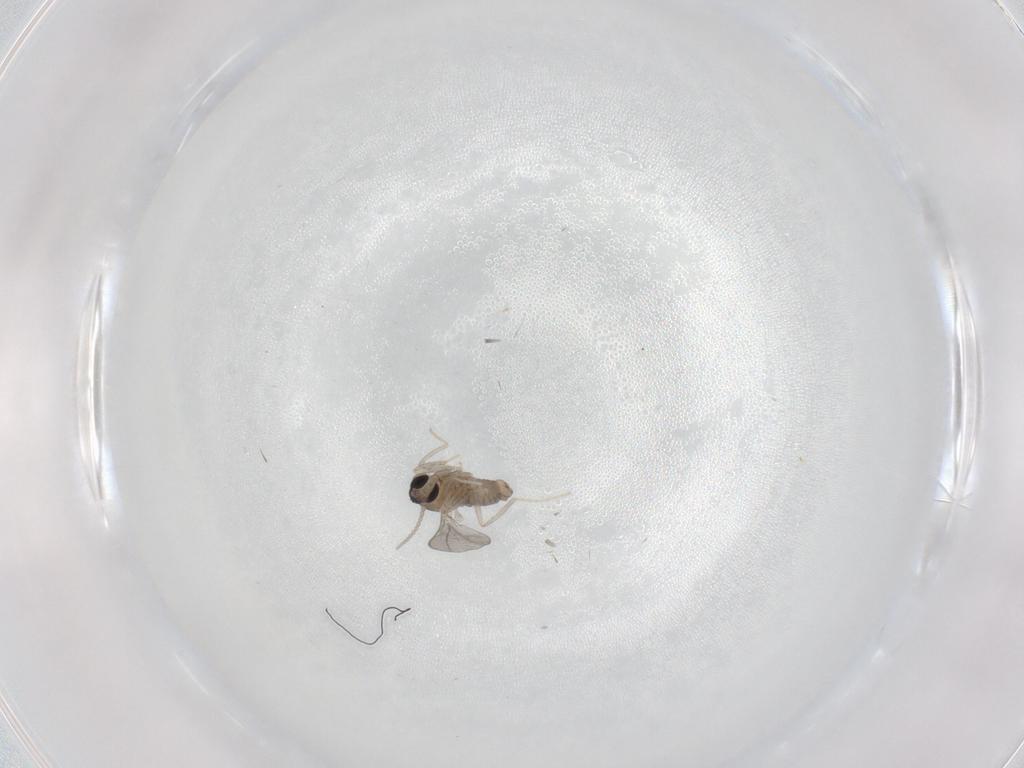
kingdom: Animalia
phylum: Arthropoda
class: Insecta
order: Diptera
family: Cecidomyiidae
